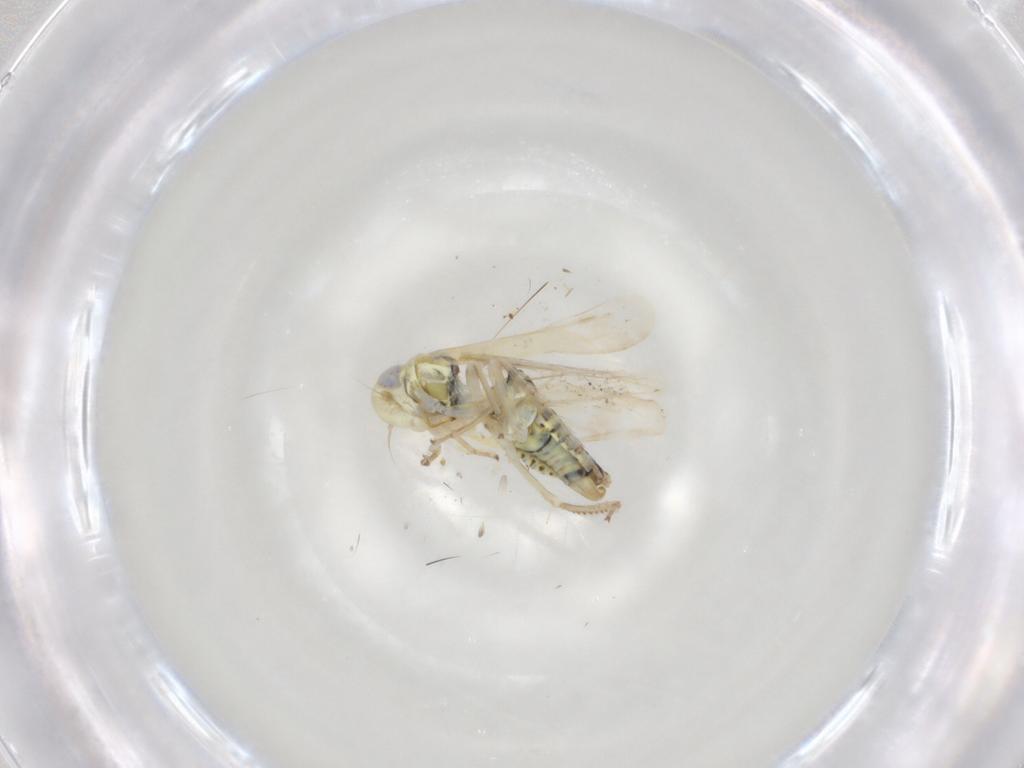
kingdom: Animalia
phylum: Arthropoda
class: Insecta
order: Hemiptera
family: Cicadellidae
